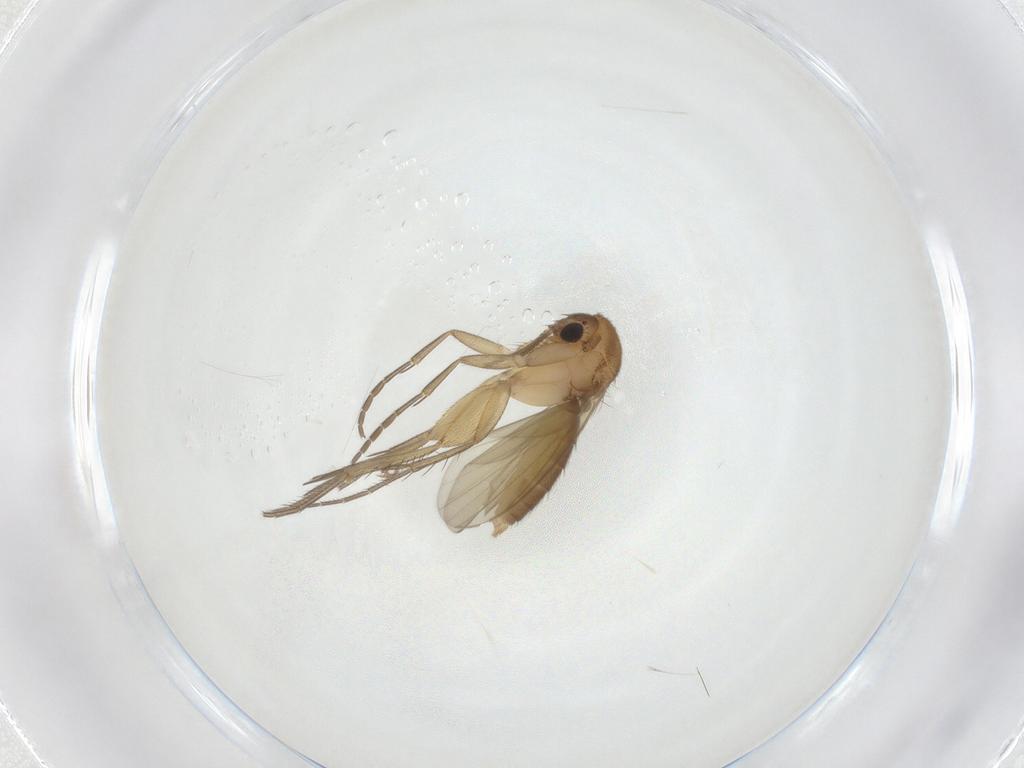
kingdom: Animalia
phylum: Arthropoda
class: Insecta
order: Diptera
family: Mycetophilidae
